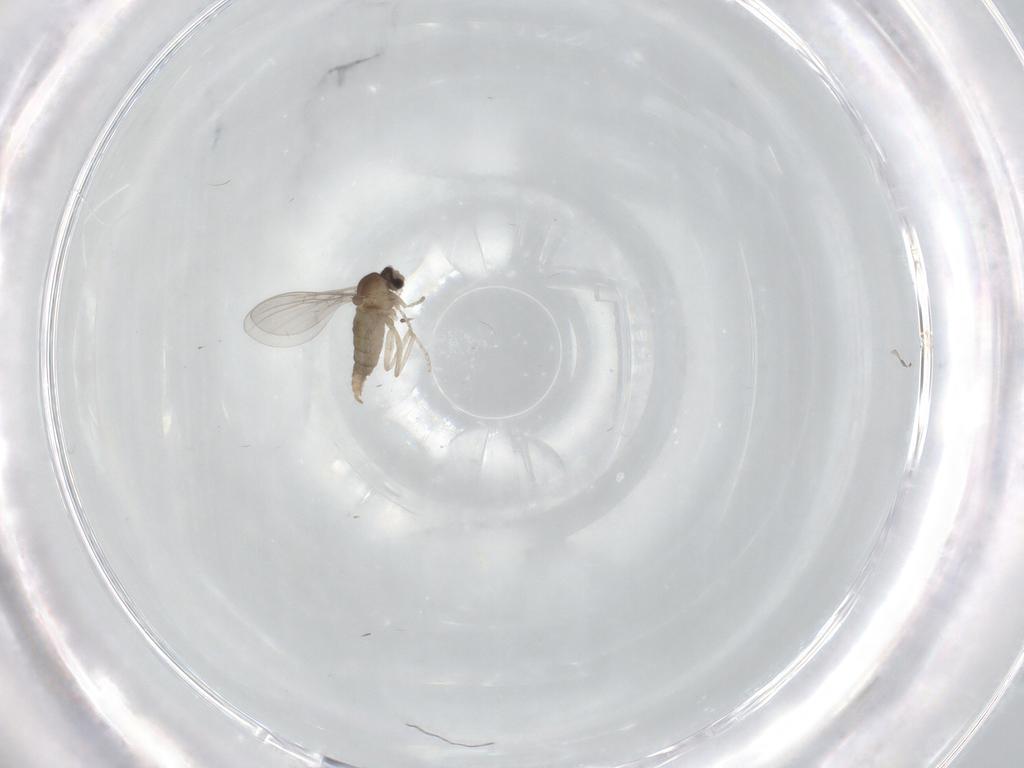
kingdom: Animalia
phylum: Arthropoda
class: Insecta
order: Diptera
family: Cecidomyiidae
